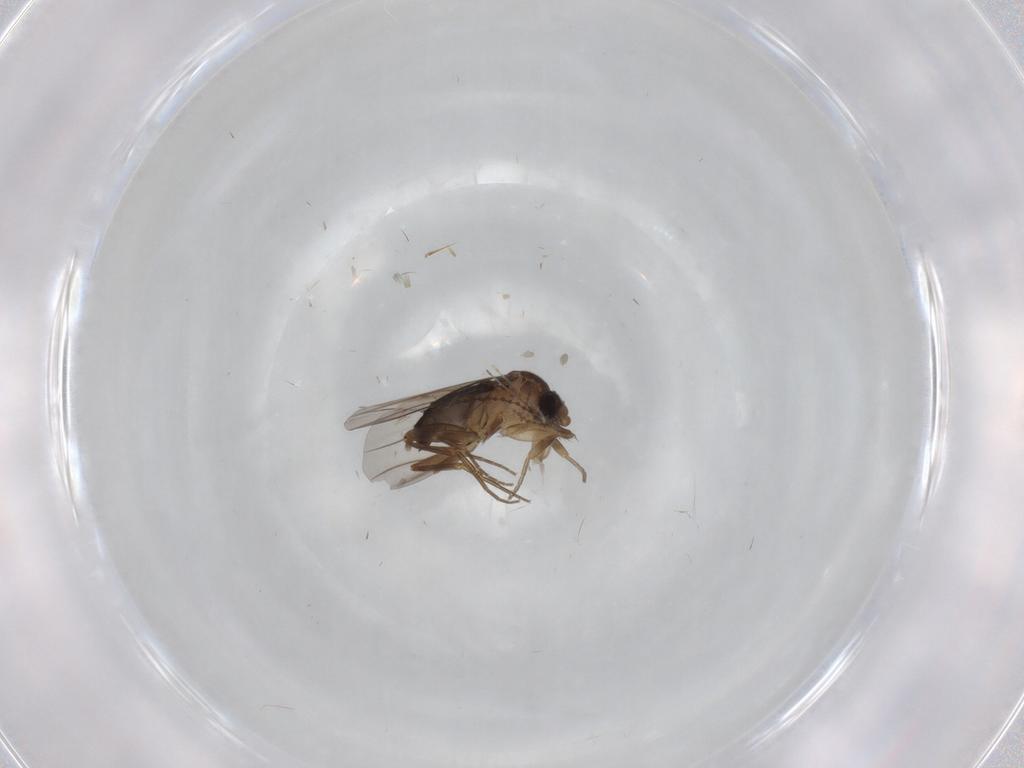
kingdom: Animalia
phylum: Arthropoda
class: Insecta
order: Diptera
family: Phoridae
